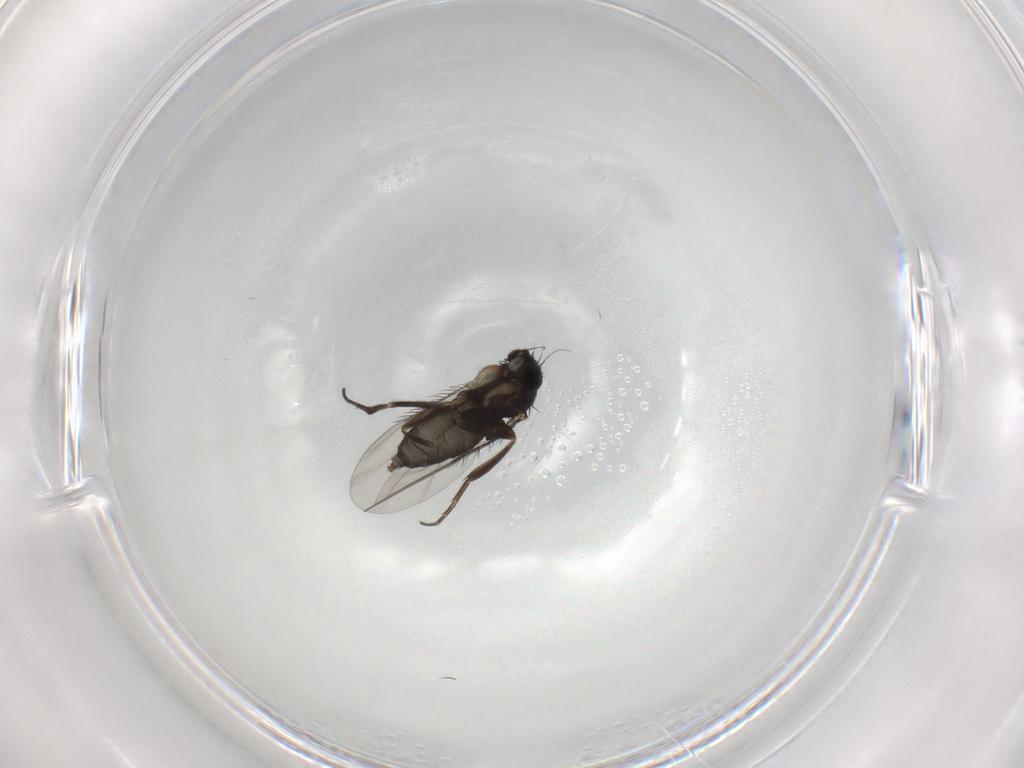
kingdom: Animalia
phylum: Arthropoda
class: Insecta
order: Diptera
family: Phoridae
